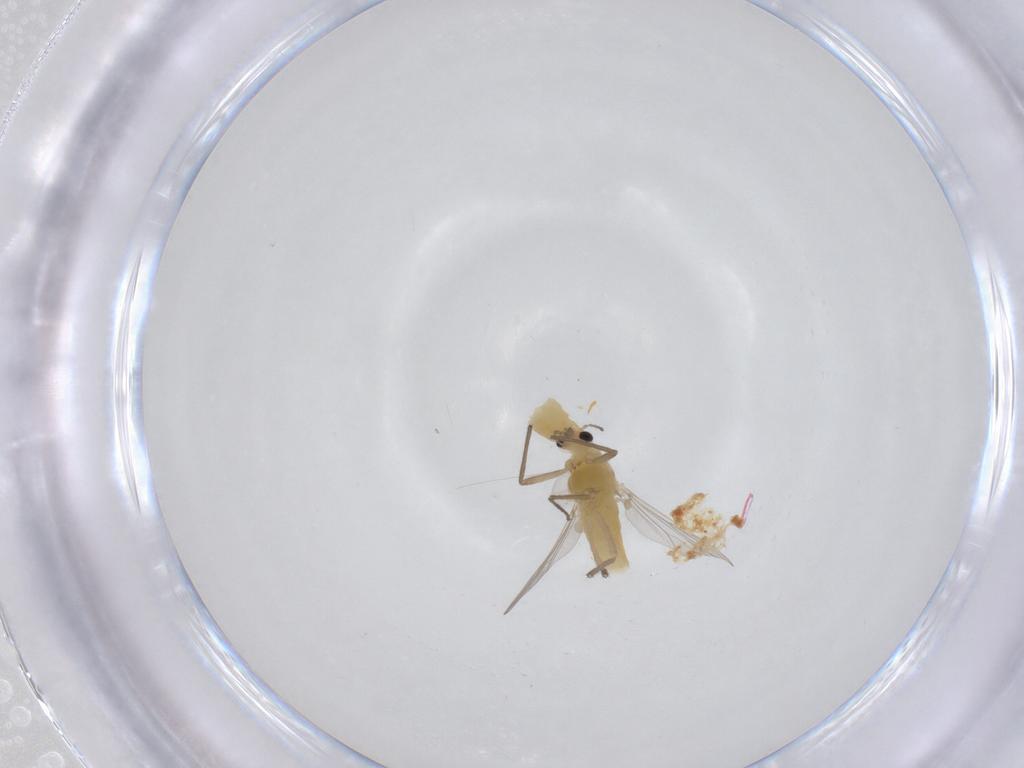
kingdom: Animalia
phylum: Arthropoda
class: Insecta
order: Diptera
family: Chironomidae
